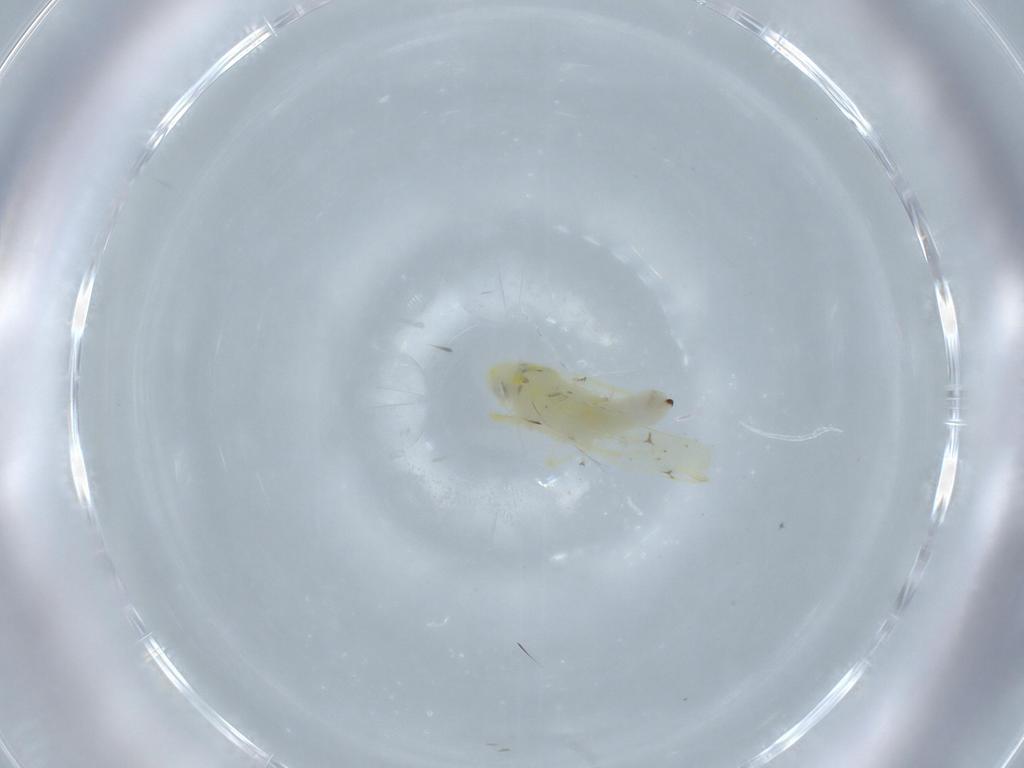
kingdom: Animalia
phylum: Arthropoda
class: Insecta
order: Hemiptera
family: Cicadellidae
